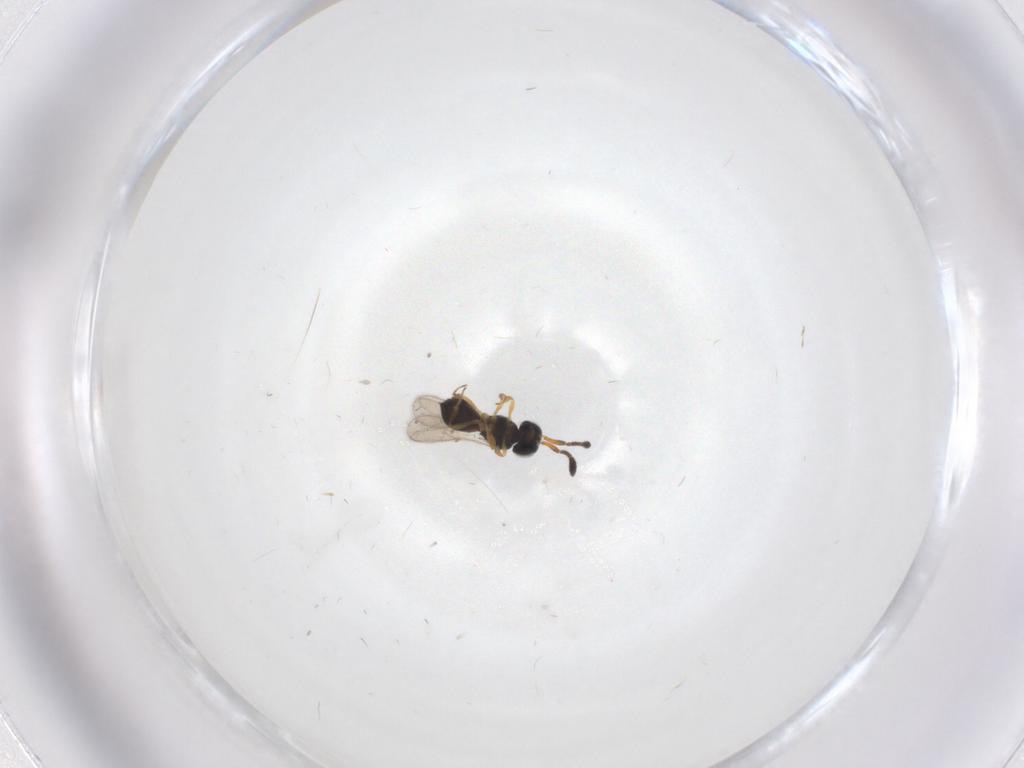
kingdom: Animalia
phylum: Arthropoda
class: Insecta
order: Hymenoptera
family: Scelionidae
